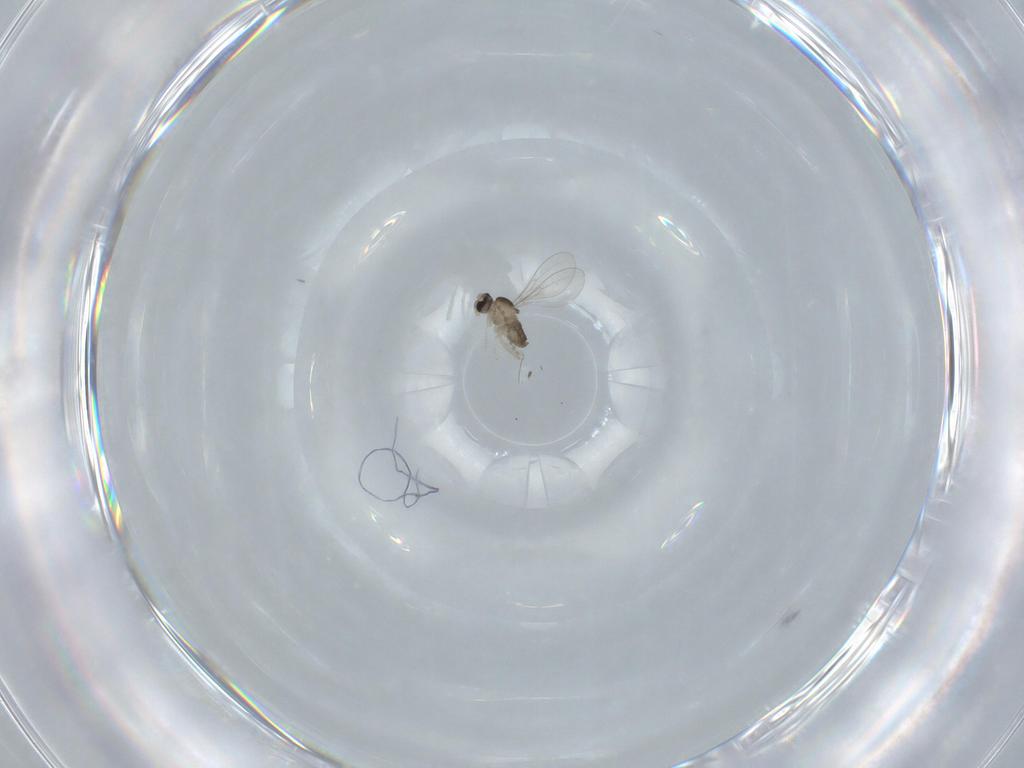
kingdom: Animalia
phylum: Arthropoda
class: Insecta
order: Diptera
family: Cecidomyiidae
